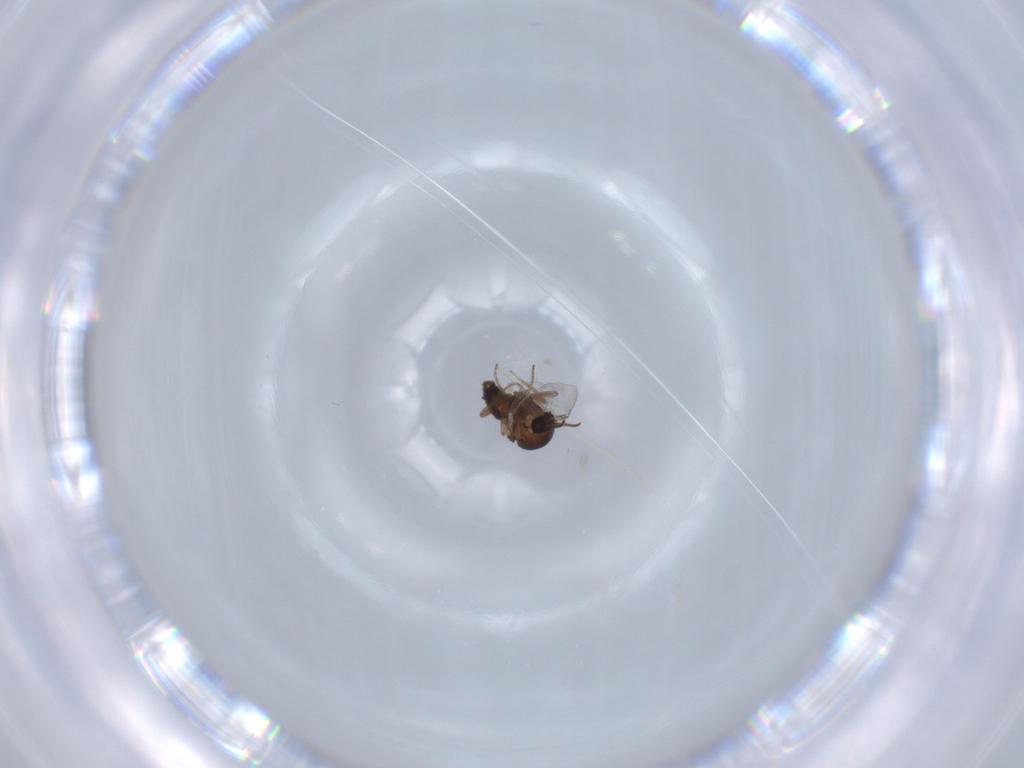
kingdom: Animalia
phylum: Arthropoda
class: Insecta
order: Diptera
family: Ceratopogonidae
